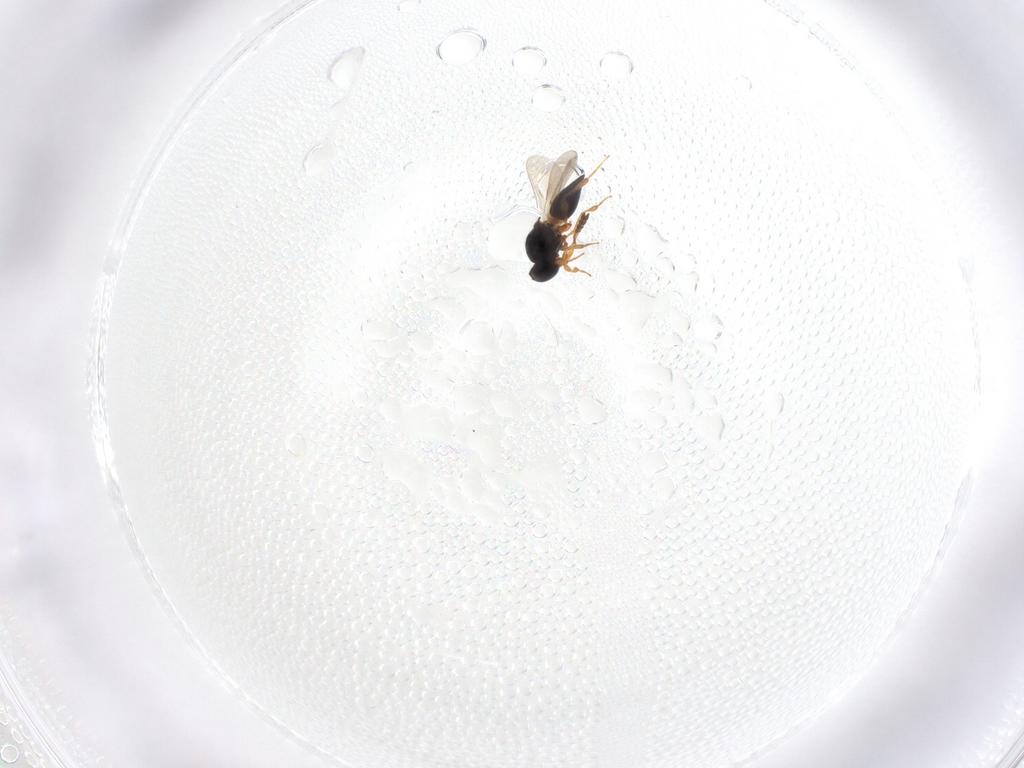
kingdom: Animalia
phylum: Arthropoda
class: Insecta
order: Hymenoptera
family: Platygastridae
